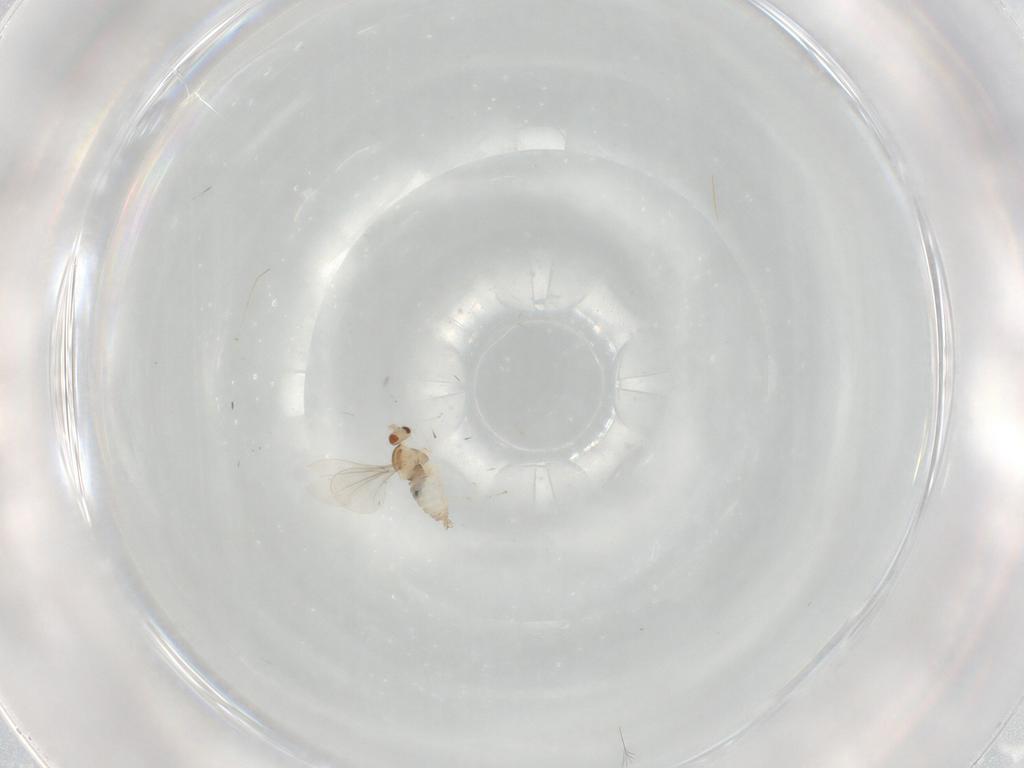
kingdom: Animalia
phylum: Arthropoda
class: Insecta
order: Diptera
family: Cecidomyiidae
